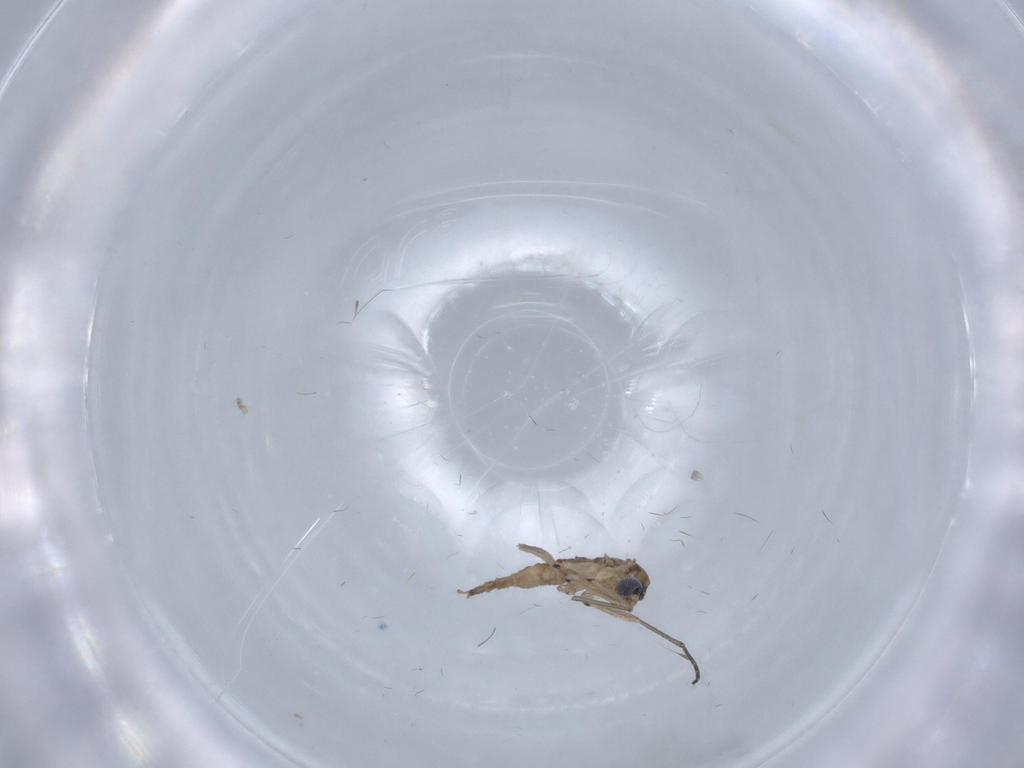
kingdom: Animalia
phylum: Arthropoda
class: Insecta
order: Diptera
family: Sciaridae
